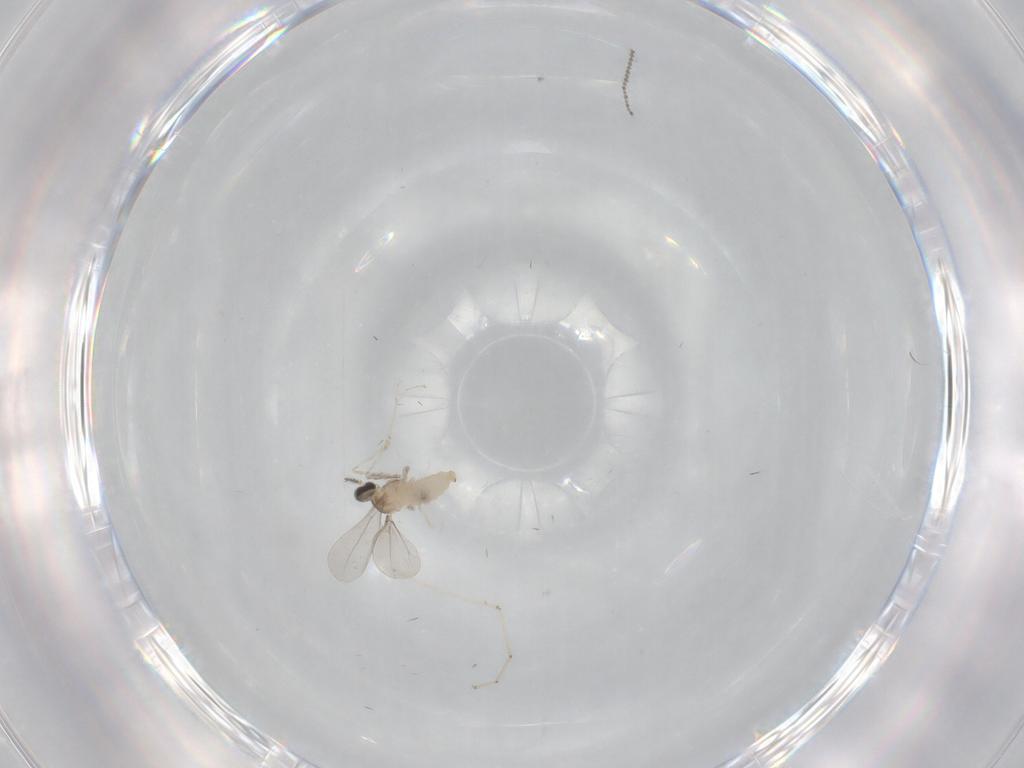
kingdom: Animalia
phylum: Arthropoda
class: Insecta
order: Diptera
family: Cecidomyiidae
